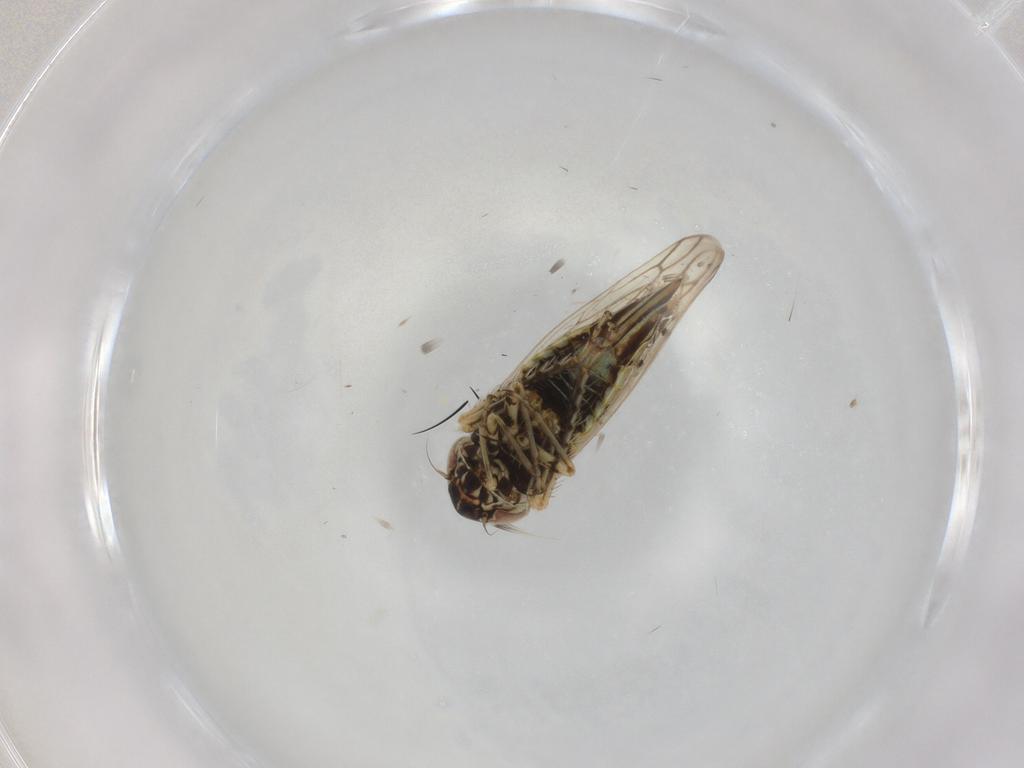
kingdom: Animalia
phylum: Arthropoda
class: Insecta
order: Hemiptera
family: Cicadellidae
